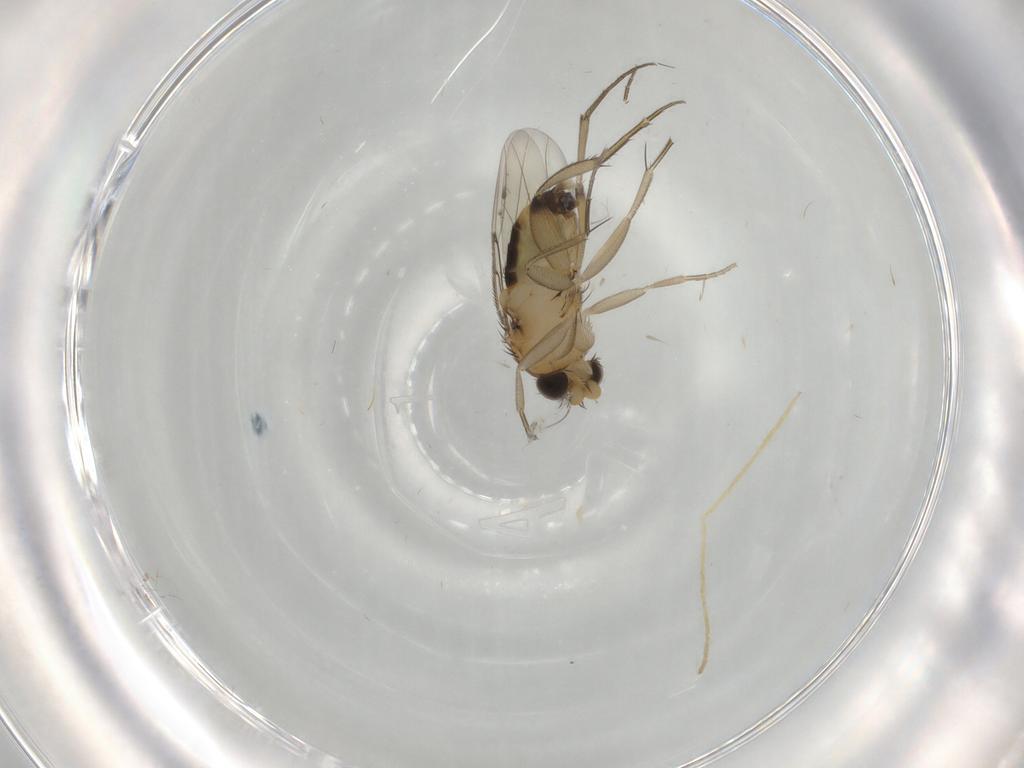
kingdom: Animalia
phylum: Arthropoda
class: Insecta
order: Diptera
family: Phoridae
